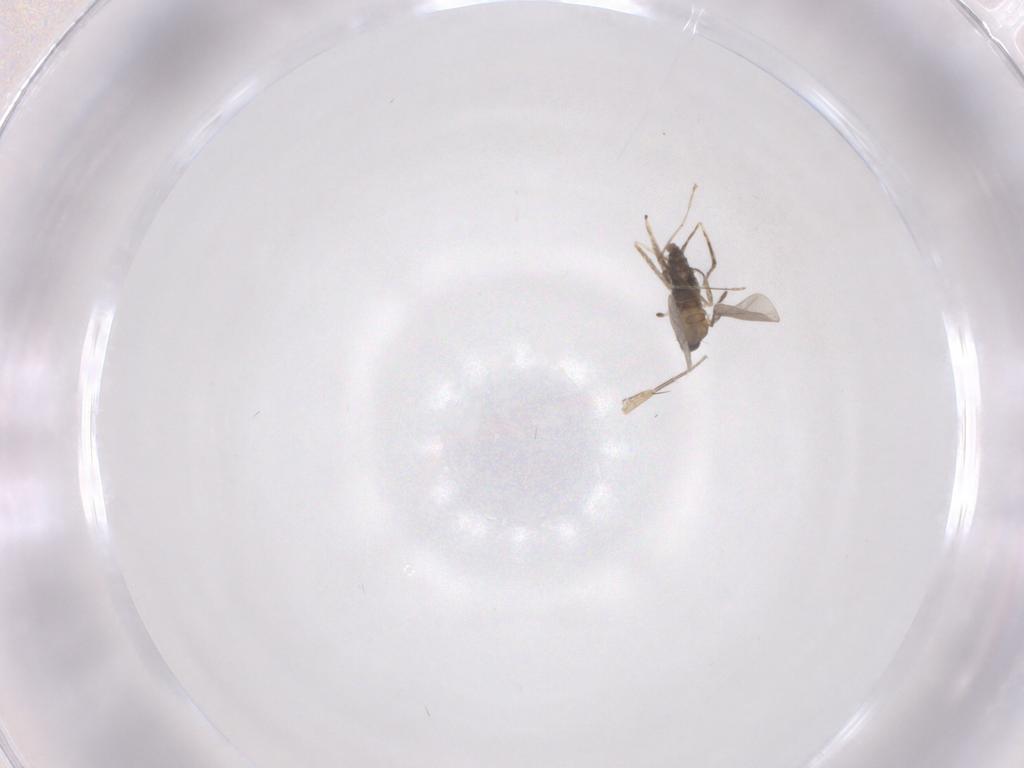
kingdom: Animalia
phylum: Arthropoda
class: Insecta
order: Diptera
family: Cecidomyiidae
